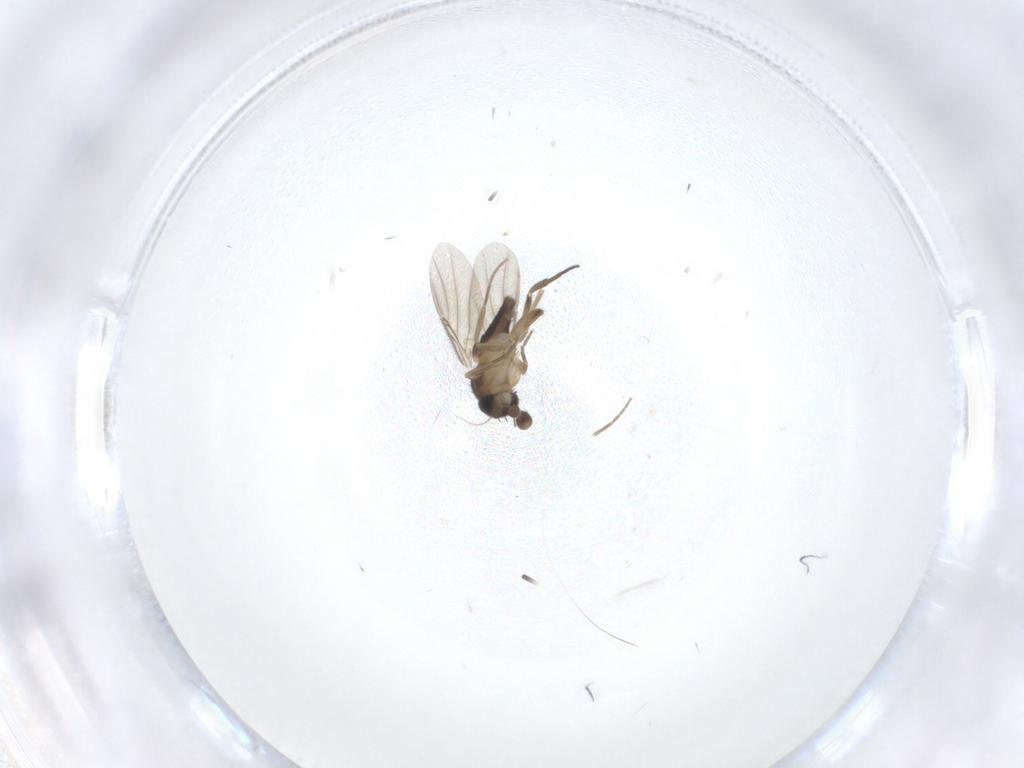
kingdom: Animalia
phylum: Arthropoda
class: Insecta
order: Diptera
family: Phoridae
